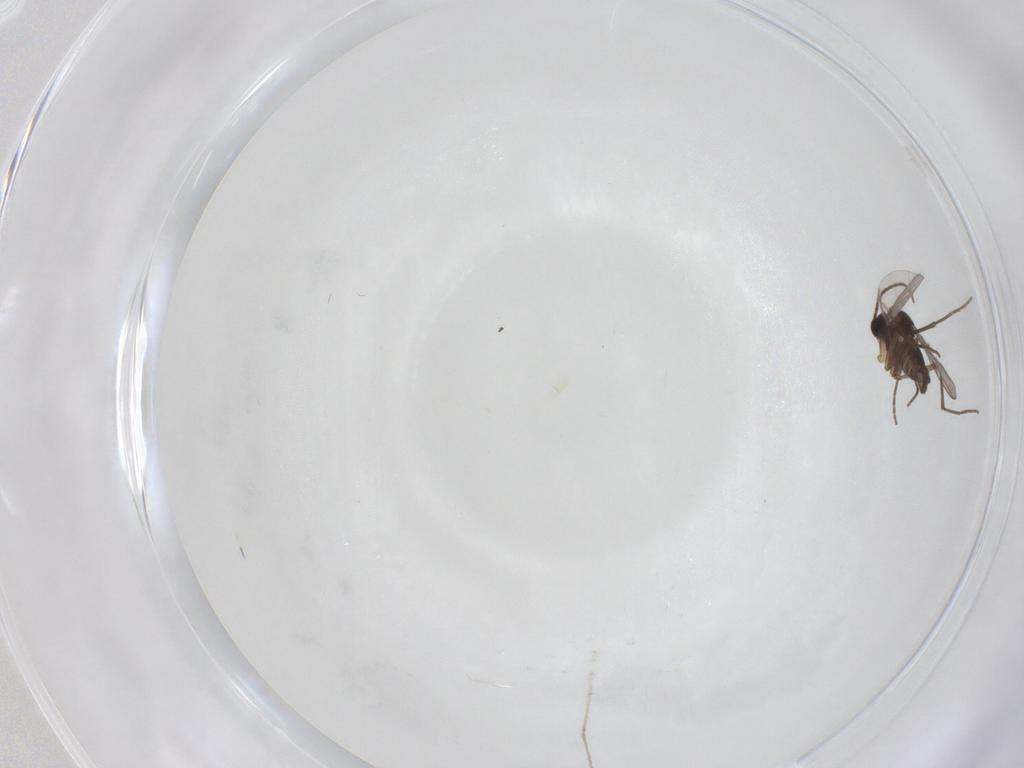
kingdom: Animalia
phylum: Arthropoda
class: Insecta
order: Diptera
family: Sciaridae
